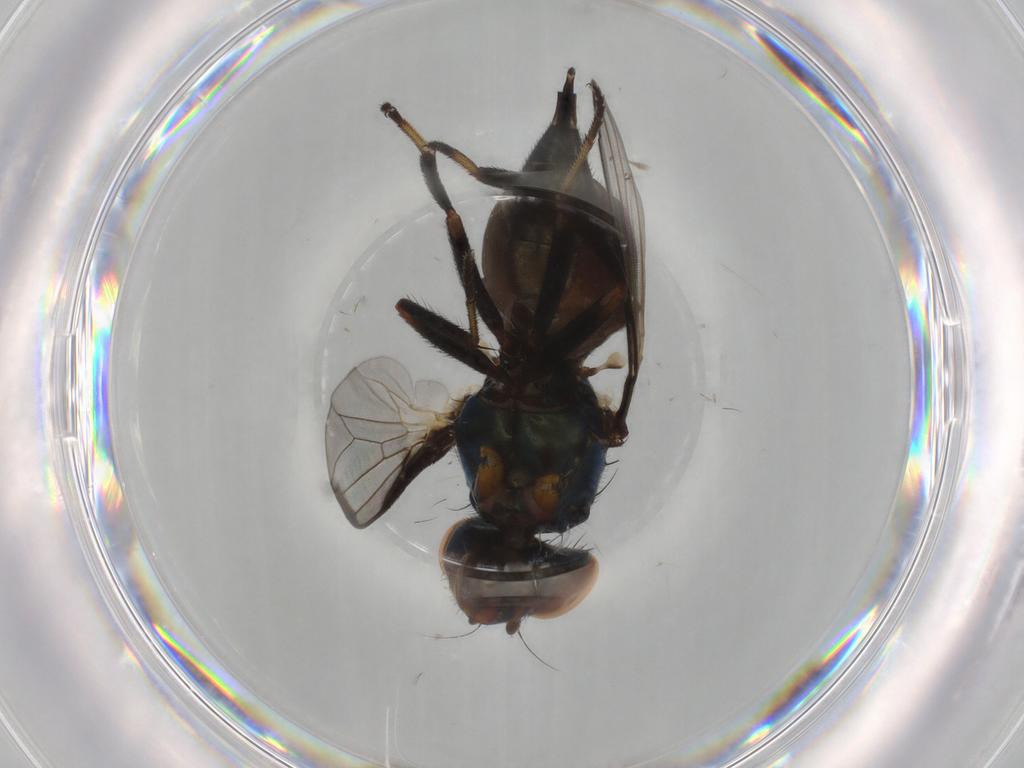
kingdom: Animalia
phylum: Arthropoda
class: Insecta
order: Diptera
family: Ulidiidae
